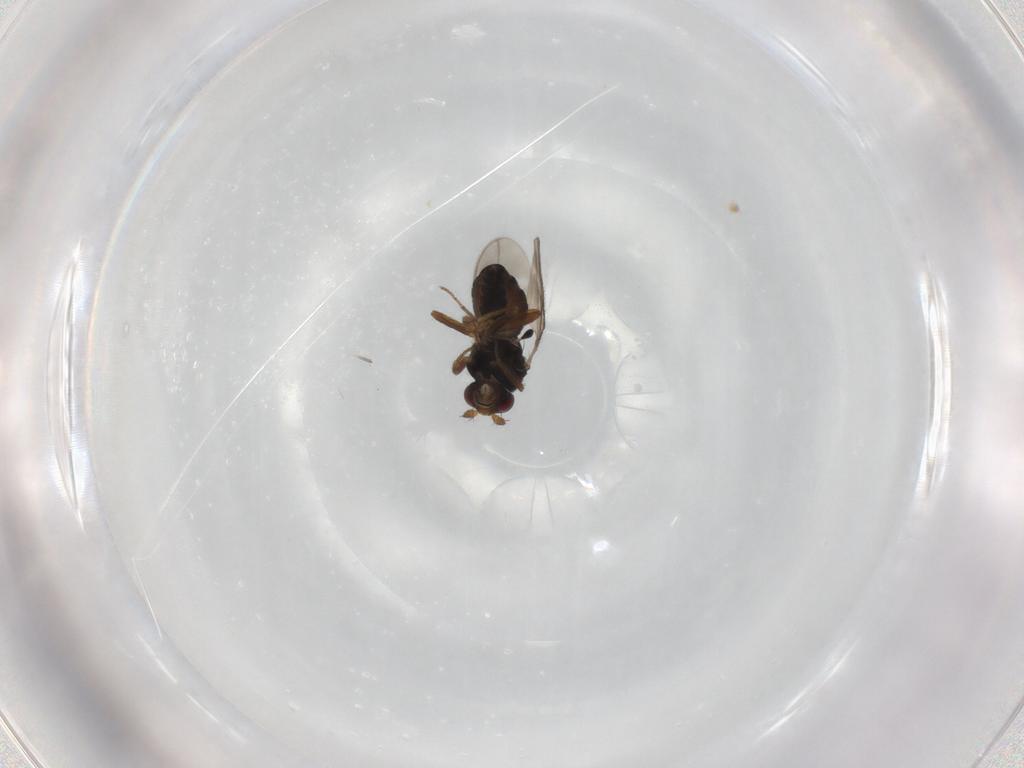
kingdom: Animalia
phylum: Arthropoda
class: Insecta
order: Diptera
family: Sphaeroceridae
